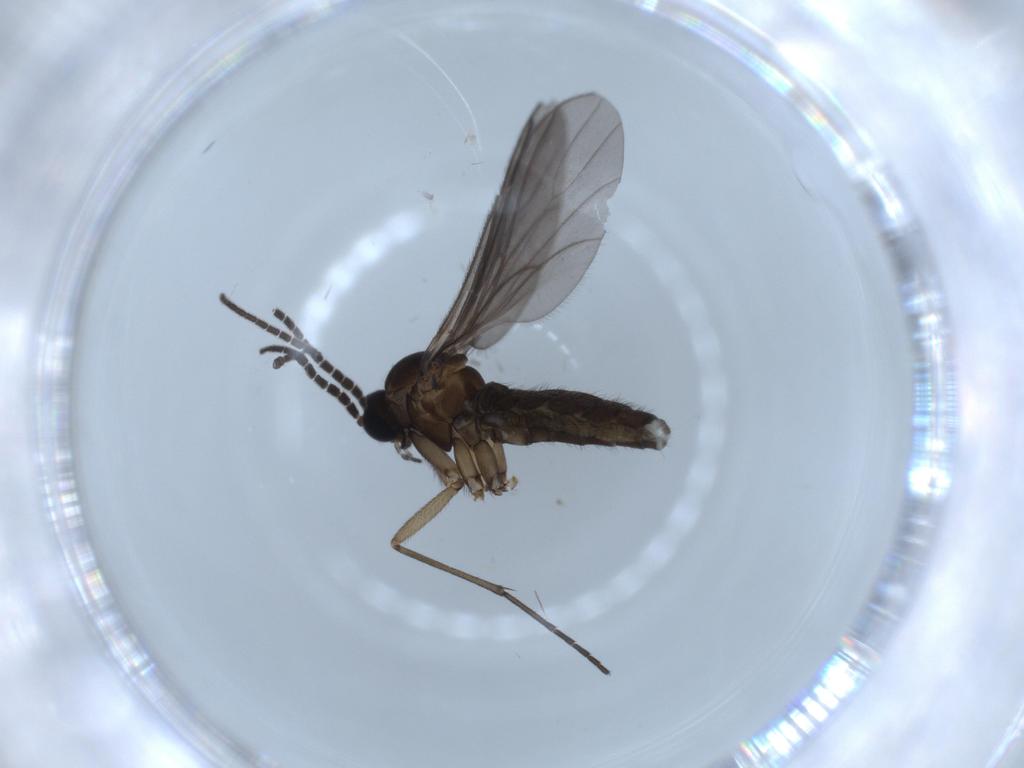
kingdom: Animalia
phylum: Arthropoda
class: Insecta
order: Diptera
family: Sciaridae
